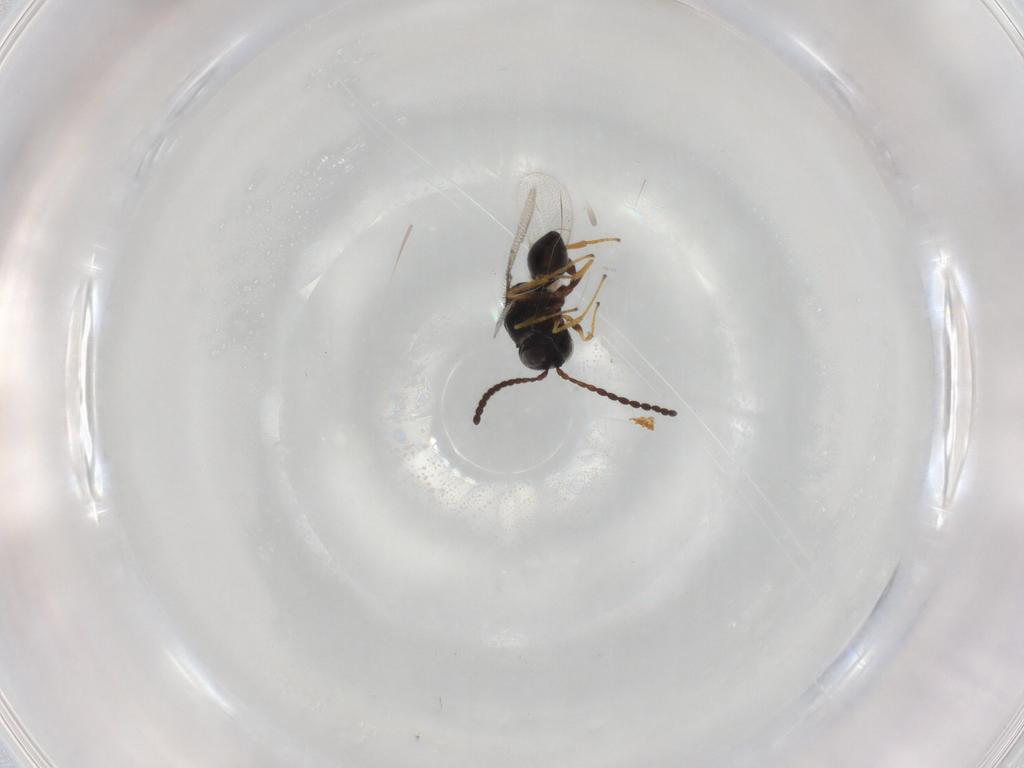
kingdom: Animalia
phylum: Arthropoda
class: Insecta
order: Hymenoptera
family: Figitidae
